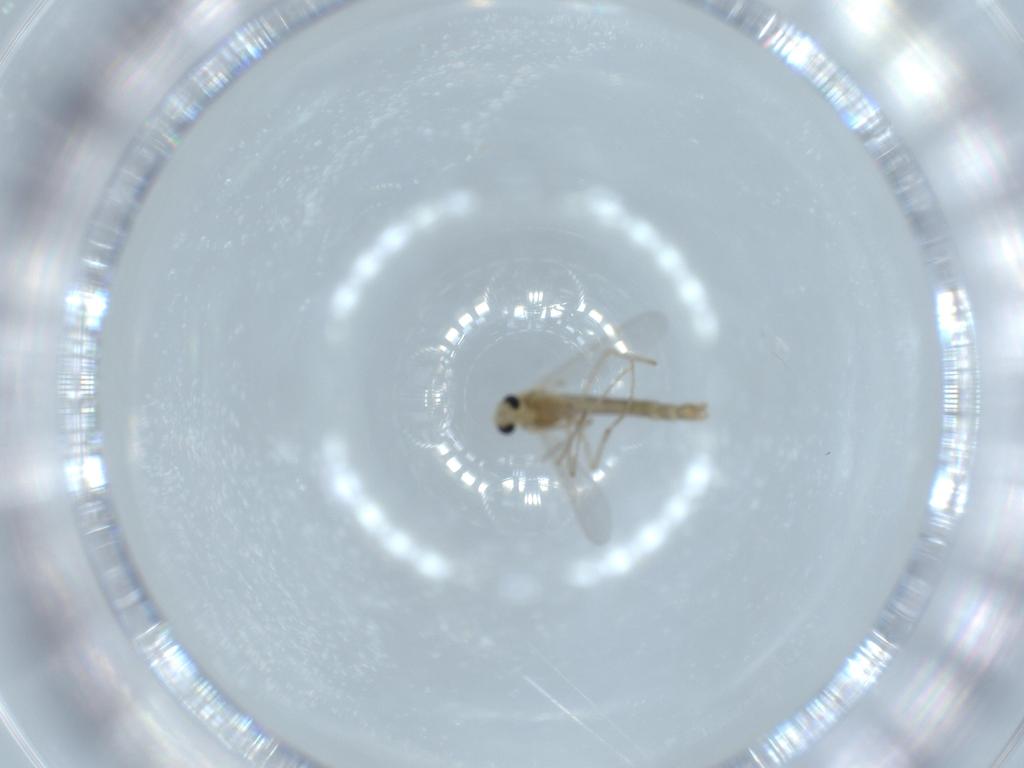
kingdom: Animalia
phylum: Arthropoda
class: Insecta
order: Diptera
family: Chironomidae
